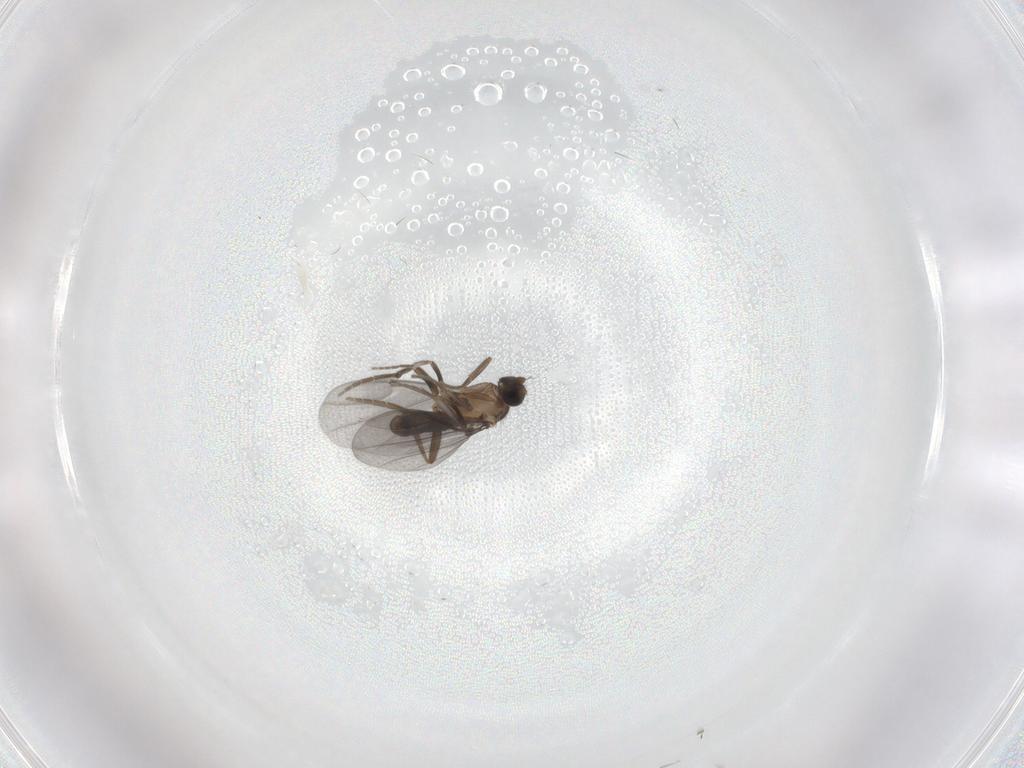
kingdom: Animalia
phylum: Arthropoda
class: Insecta
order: Diptera
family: Phoridae
